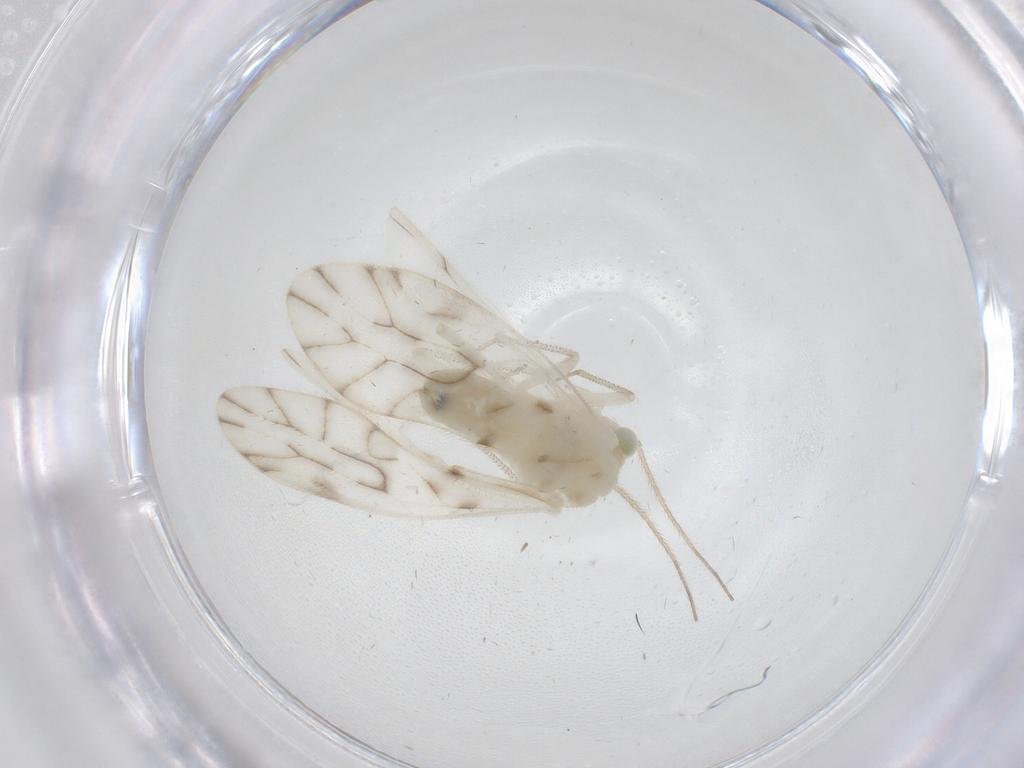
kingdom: Animalia
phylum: Arthropoda
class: Insecta
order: Psocodea
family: Caeciliusidae
